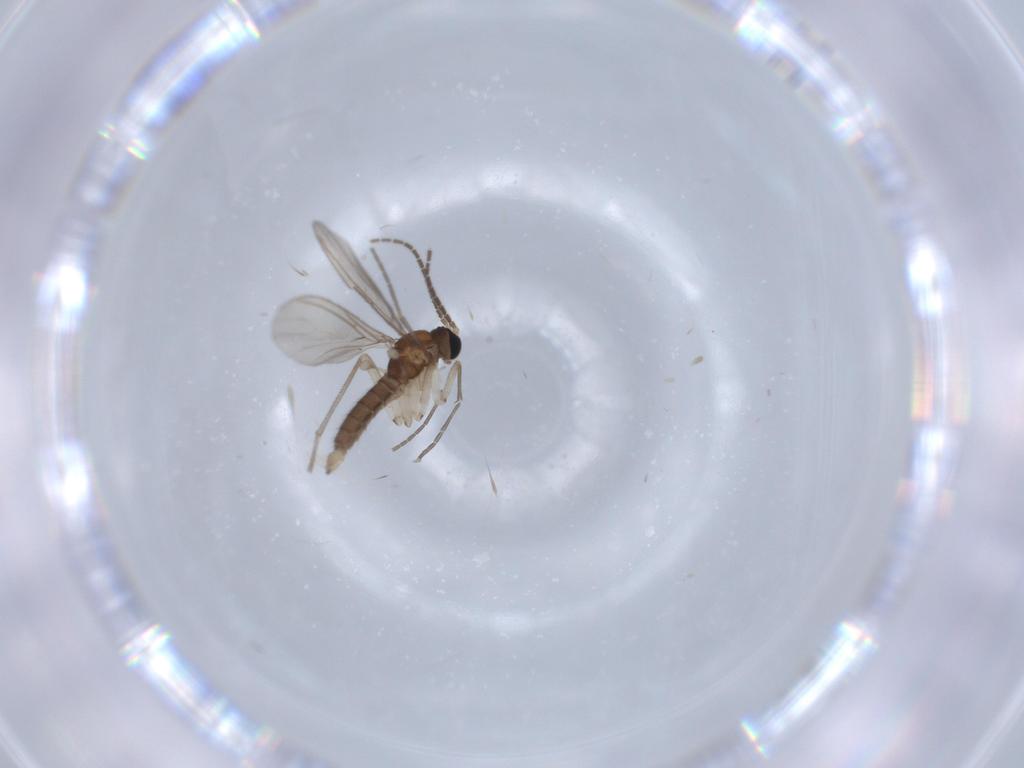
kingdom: Animalia
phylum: Arthropoda
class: Insecta
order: Diptera
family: Sciaridae
